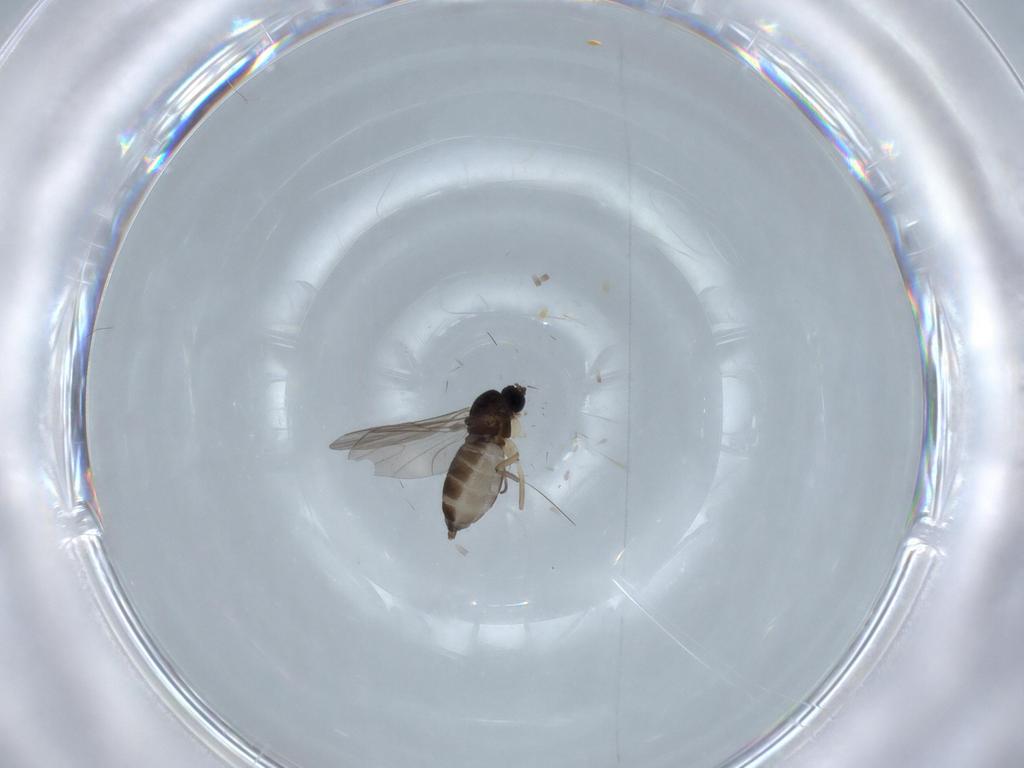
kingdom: Animalia
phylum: Arthropoda
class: Insecta
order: Diptera
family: Sciaridae
